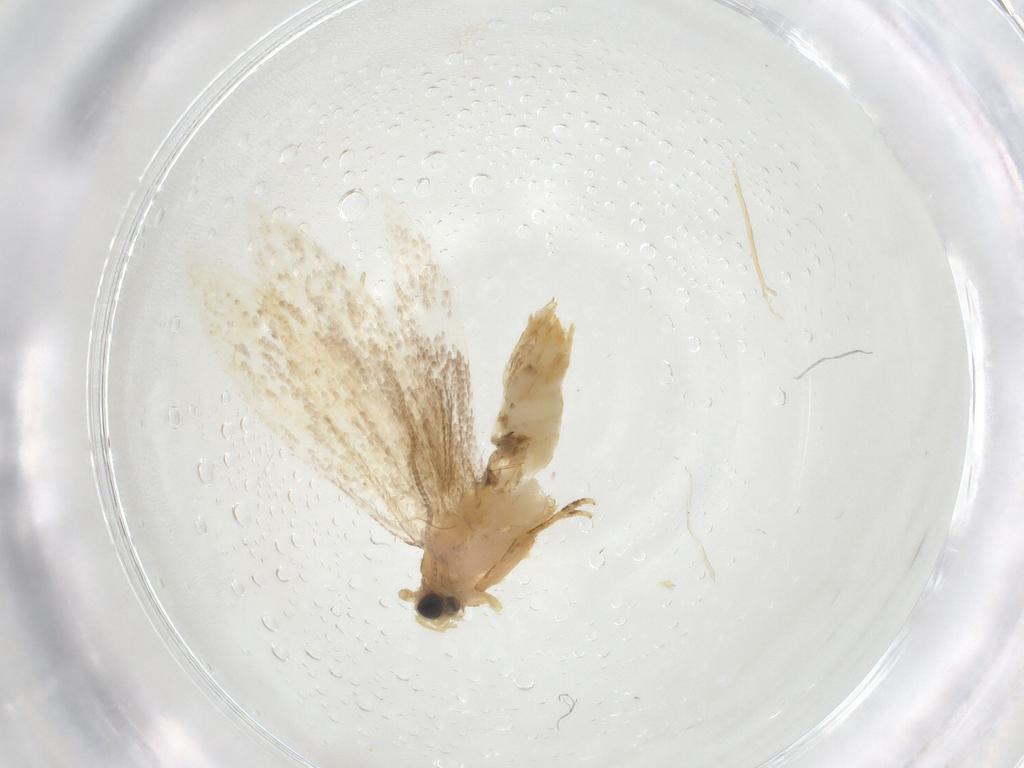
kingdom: Animalia
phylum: Arthropoda
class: Insecta
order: Lepidoptera
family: Tineidae
